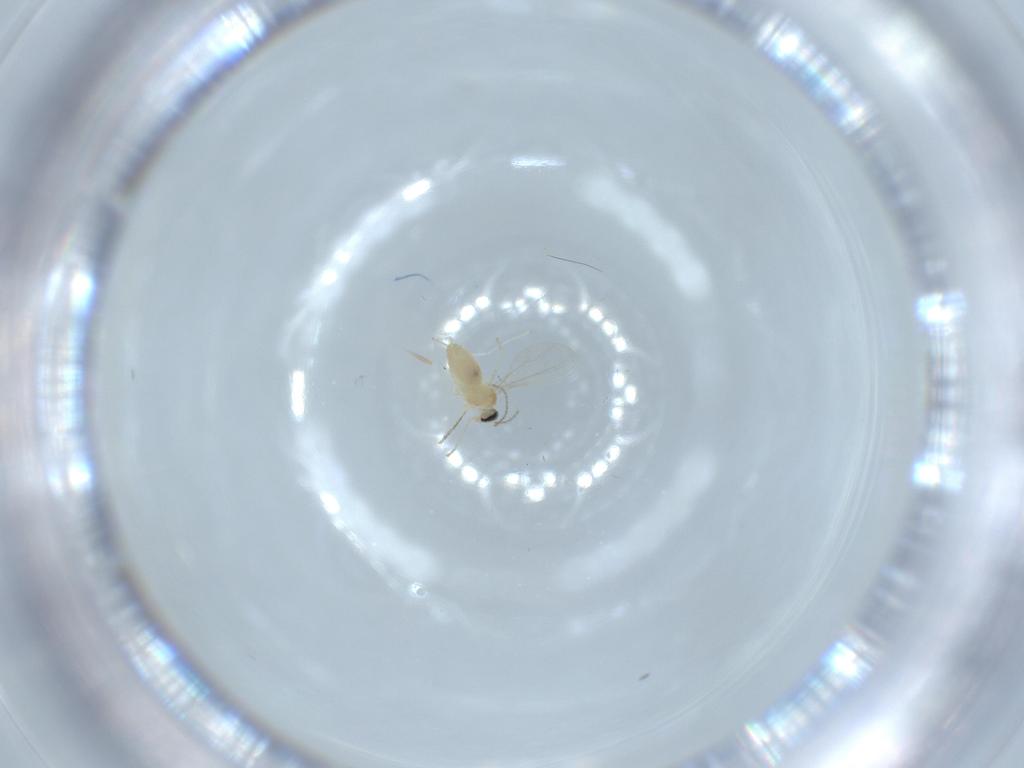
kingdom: Animalia
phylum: Arthropoda
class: Insecta
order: Diptera
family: Cecidomyiidae
